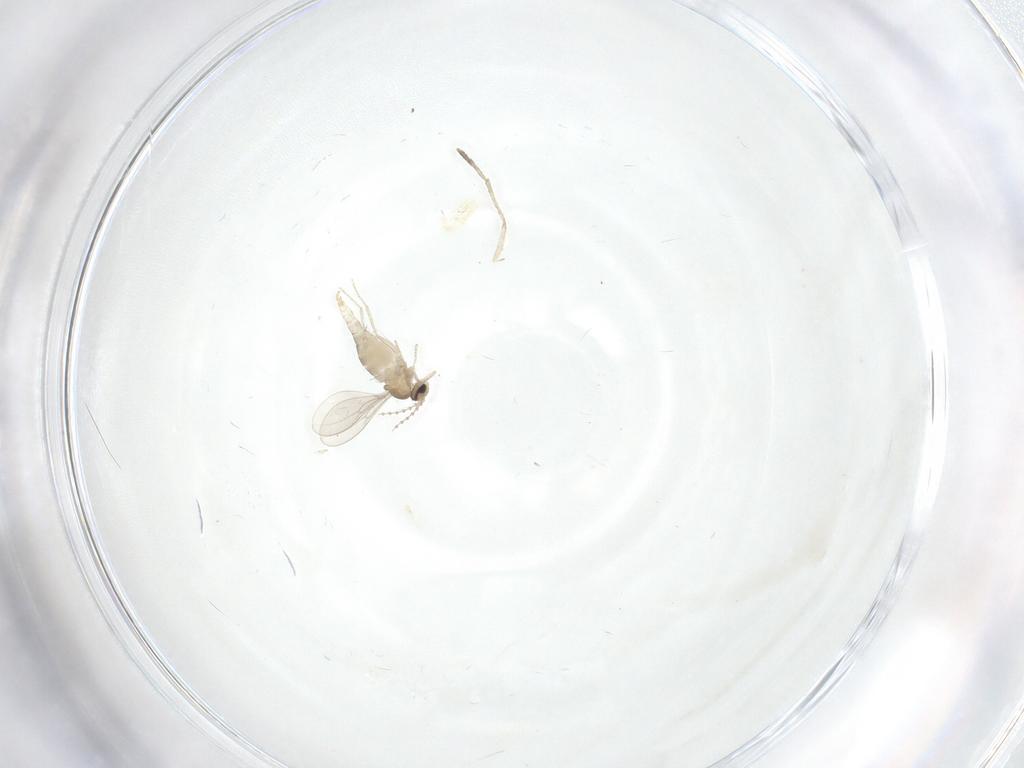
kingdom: Animalia
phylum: Arthropoda
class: Insecta
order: Diptera
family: Cecidomyiidae
